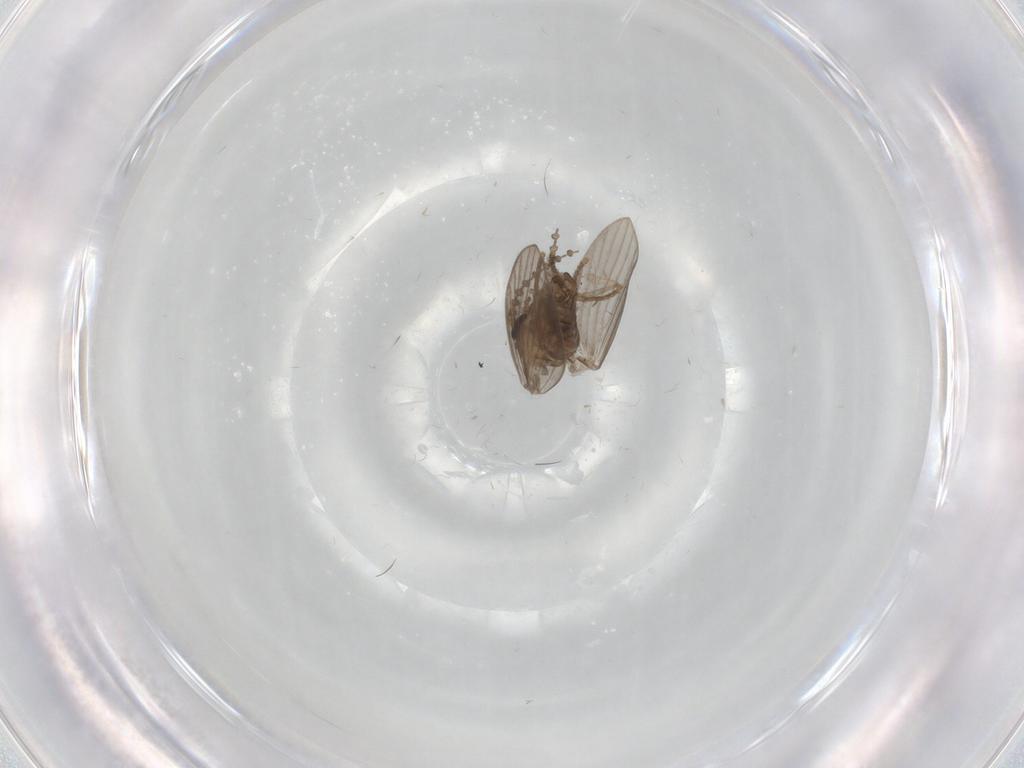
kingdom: Animalia
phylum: Arthropoda
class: Insecta
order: Diptera
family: Psychodidae
